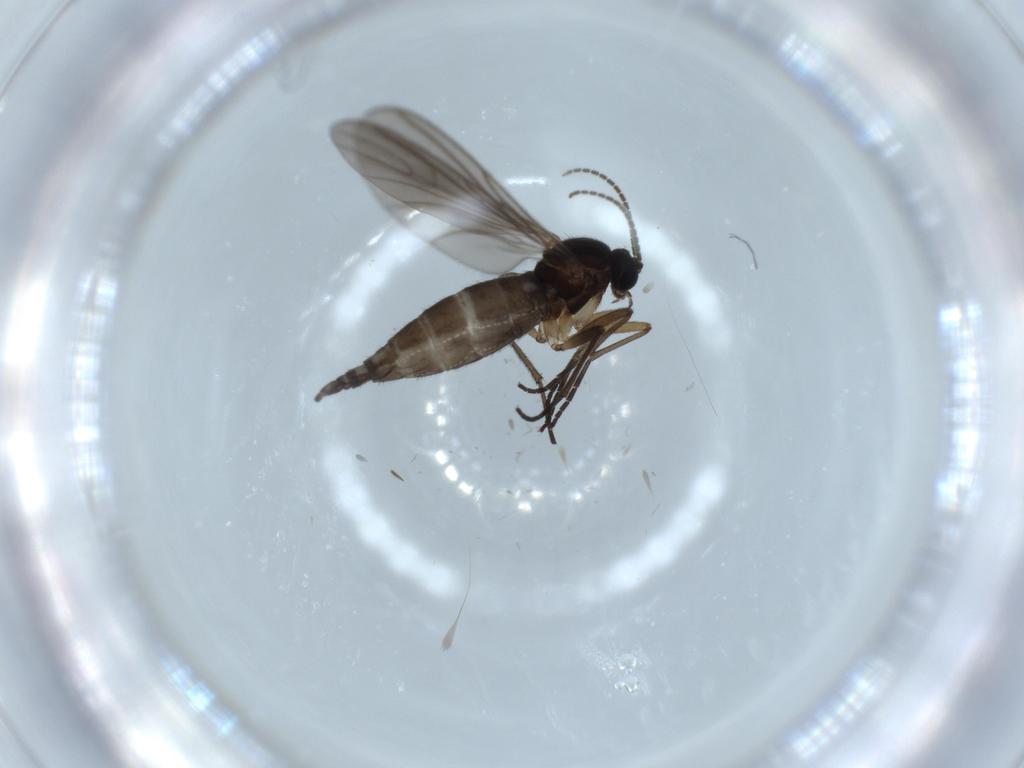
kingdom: Animalia
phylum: Arthropoda
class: Insecta
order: Diptera
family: Sciaridae
